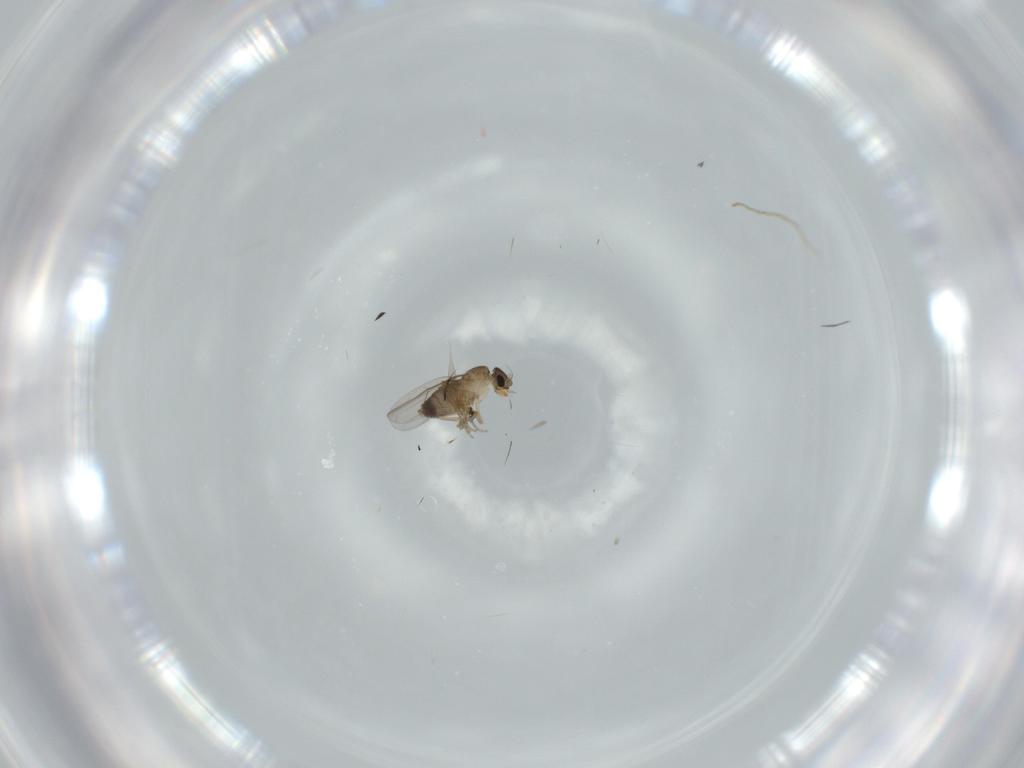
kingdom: Animalia
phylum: Arthropoda
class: Insecta
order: Diptera
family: Phoridae
